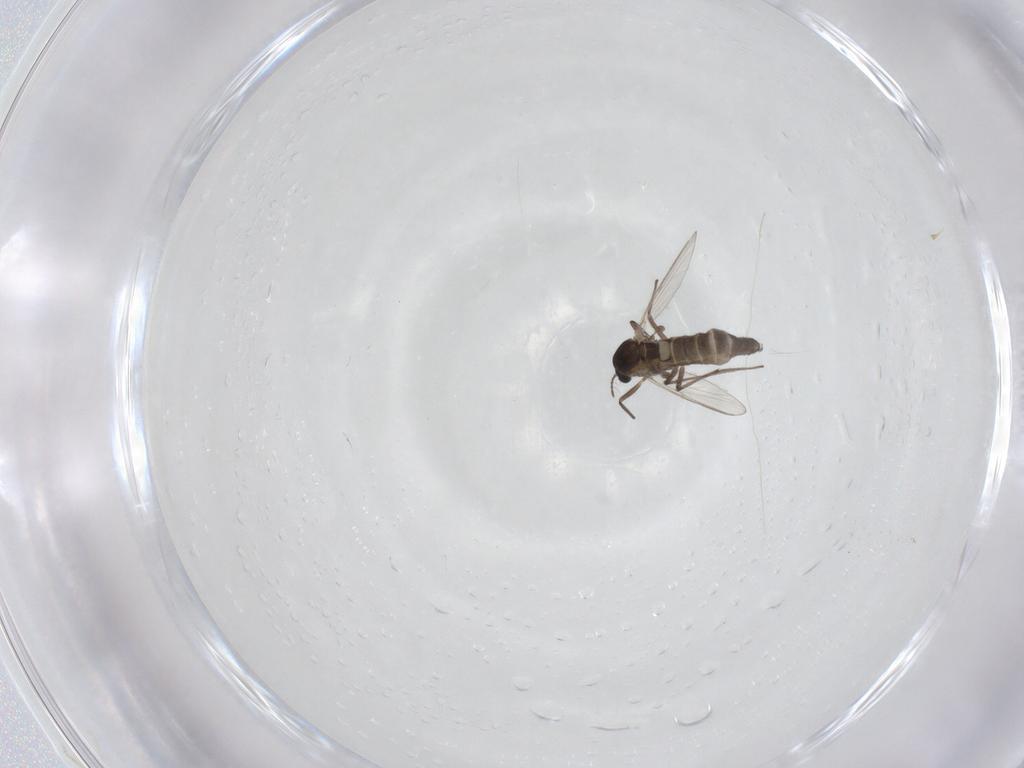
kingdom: Animalia
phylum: Arthropoda
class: Insecta
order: Diptera
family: Chironomidae
